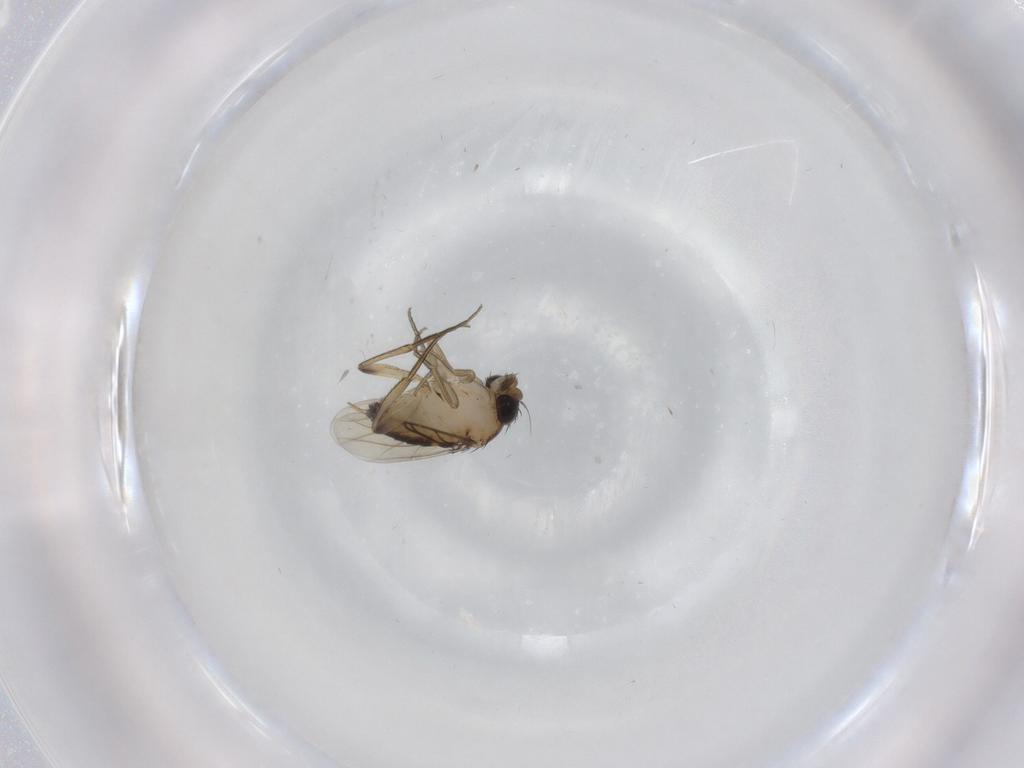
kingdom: Animalia
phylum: Arthropoda
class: Insecta
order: Diptera
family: Phoridae
